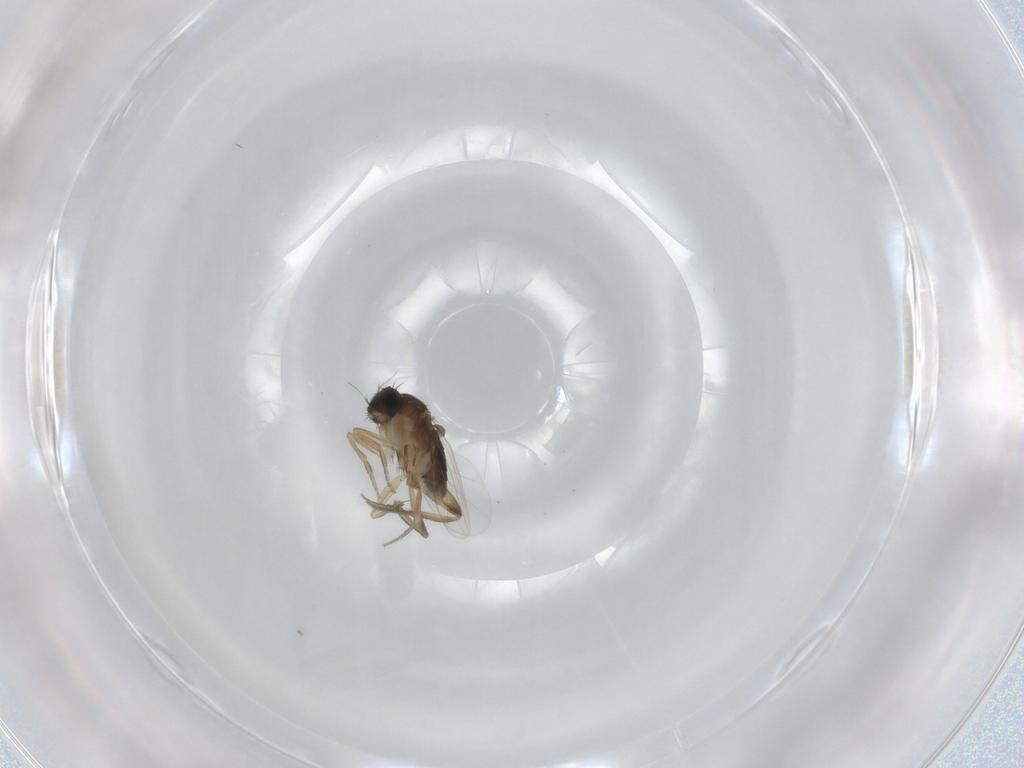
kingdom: Animalia
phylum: Arthropoda
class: Insecta
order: Diptera
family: Phoridae
